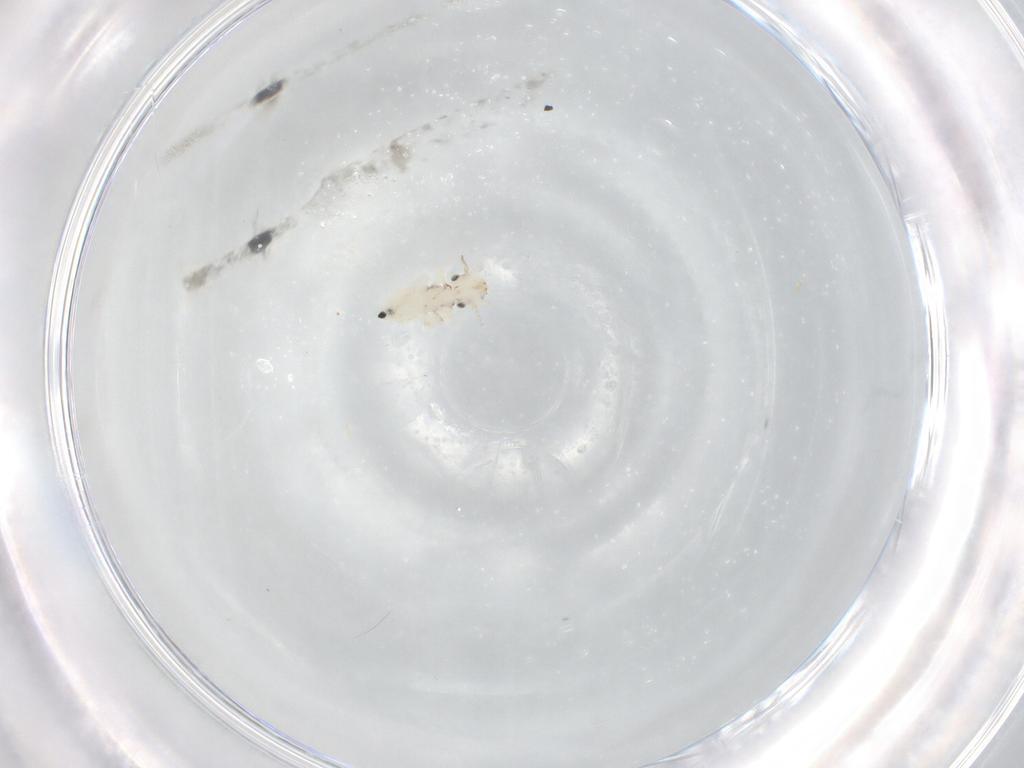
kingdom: Animalia
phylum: Arthropoda
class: Insecta
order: Psocodea
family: Lepidopsocidae
